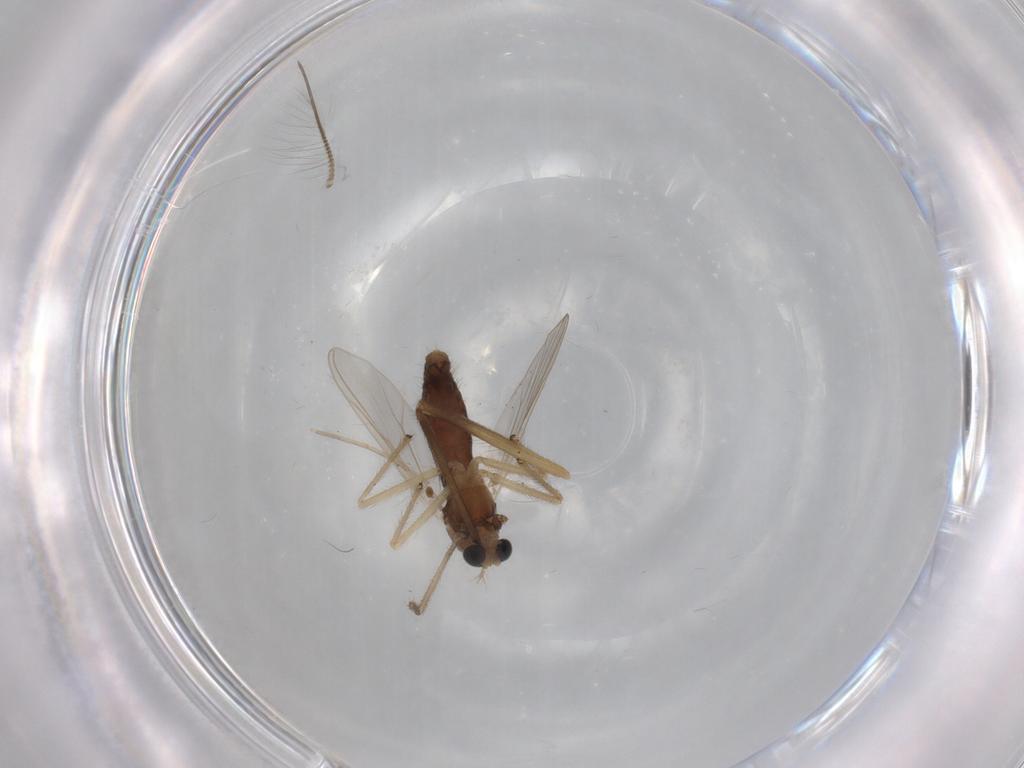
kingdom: Animalia
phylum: Arthropoda
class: Insecta
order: Diptera
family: Chironomidae
